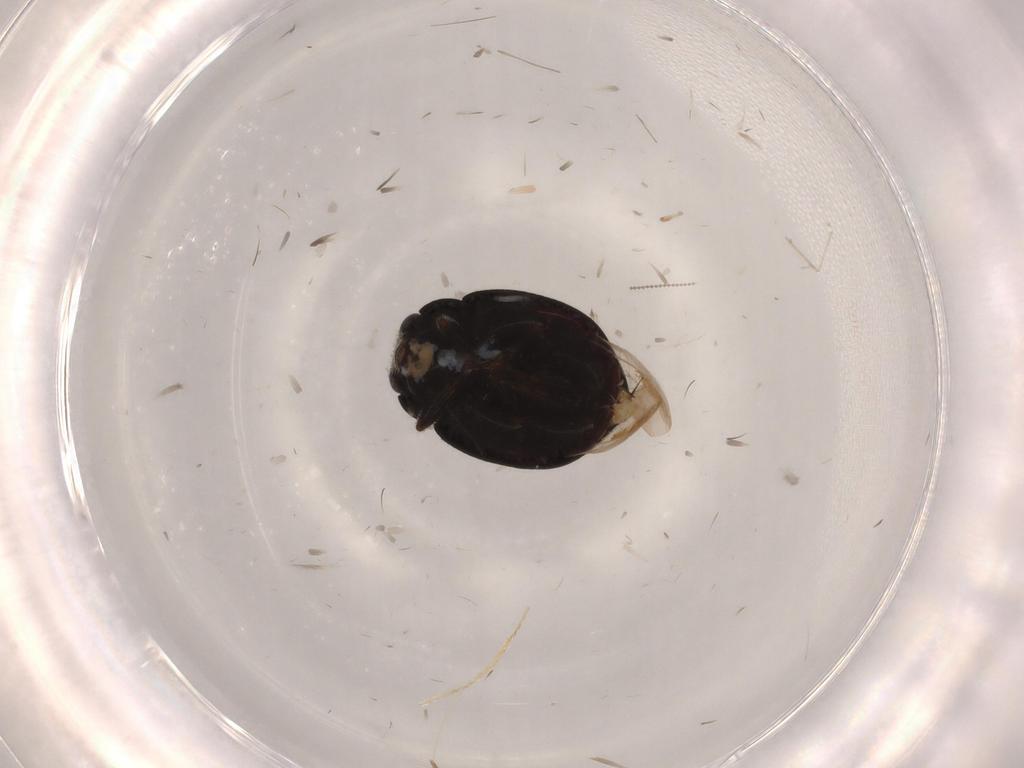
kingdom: Animalia
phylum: Arthropoda
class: Insecta
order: Coleoptera
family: Coccinellidae
